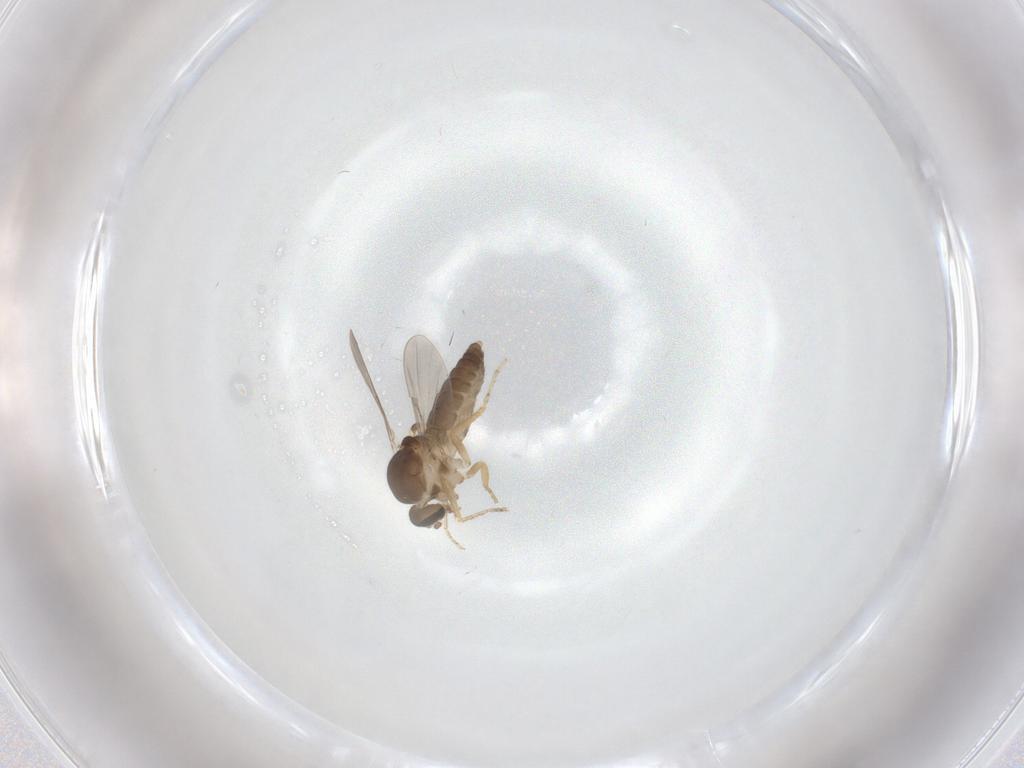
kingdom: Animalia
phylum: Arthropoda
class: Insecta
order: Diptera
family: Ceratopogonidae
